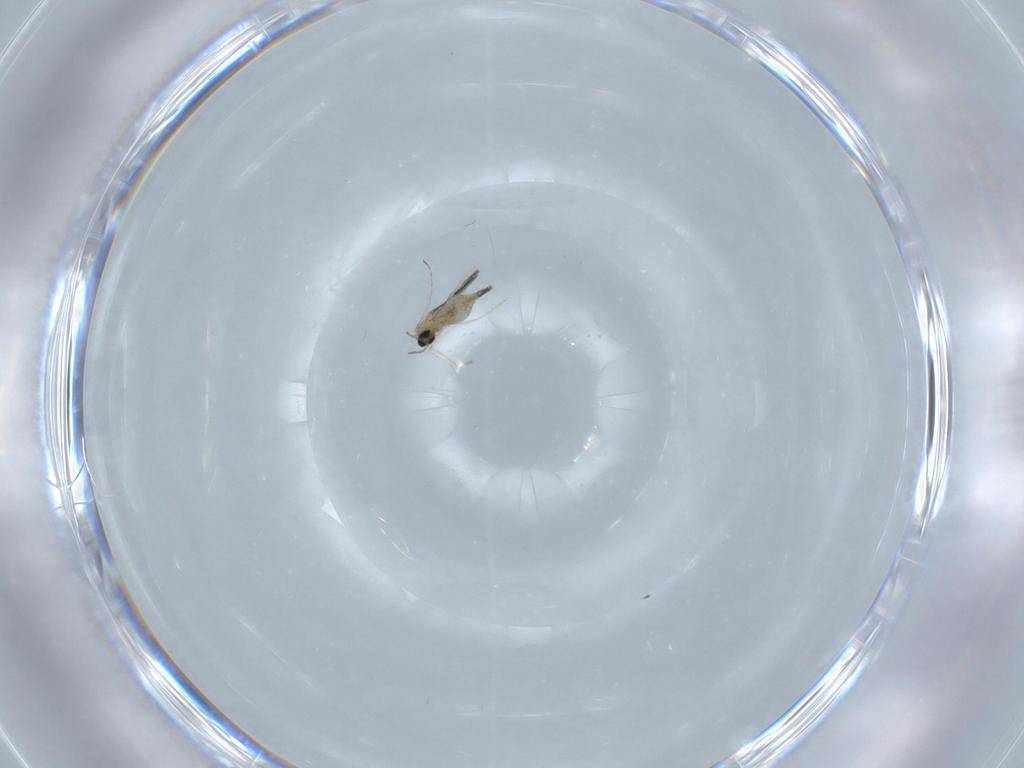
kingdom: Animalia
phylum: Arthropoda
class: Insecta
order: Diptera
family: Cecidomyiidae
